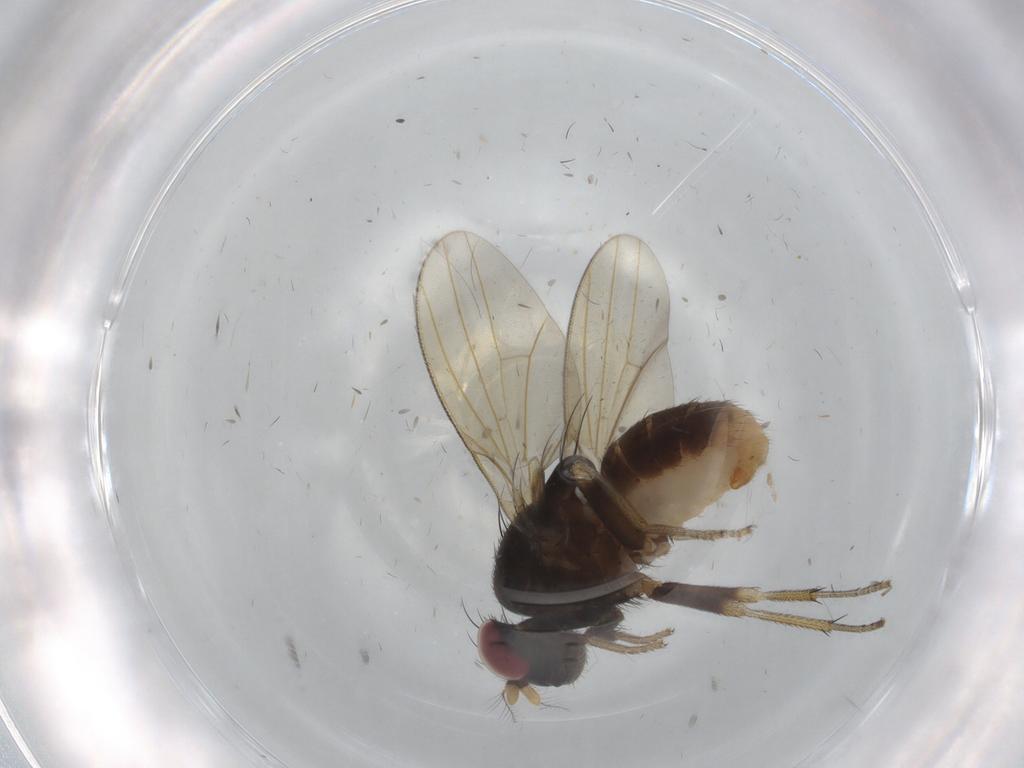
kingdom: Animalia
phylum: Arthropoda
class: Insecta
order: Diptera
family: Lauxaniidae
